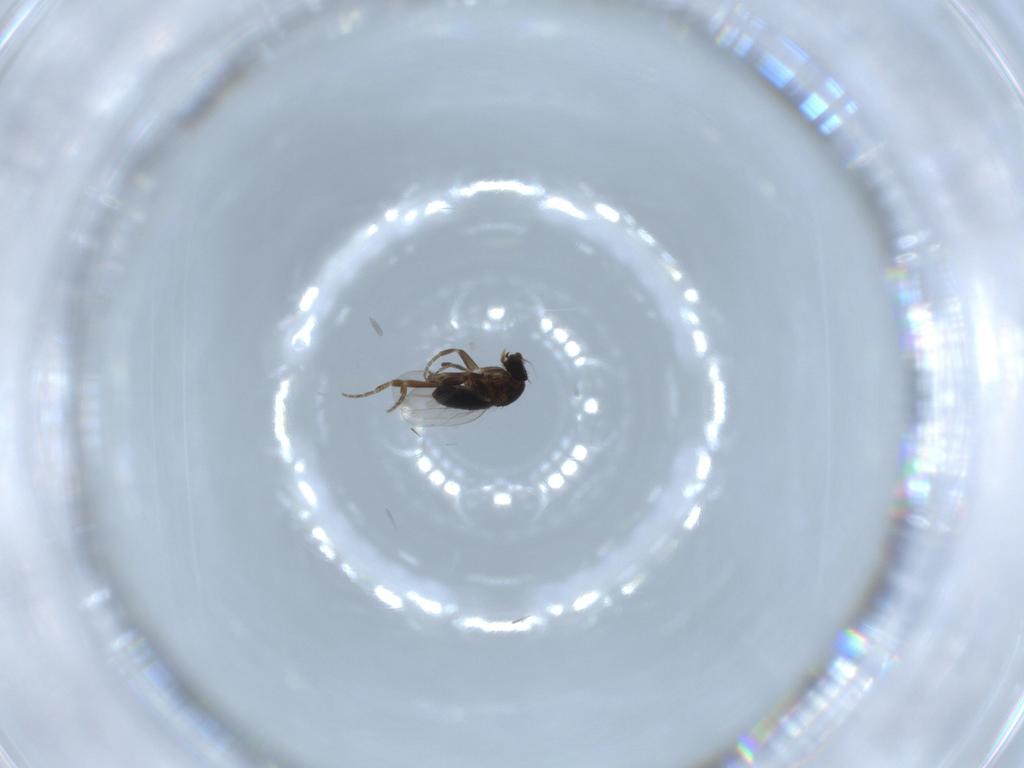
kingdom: Animalia
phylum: Arthropoda
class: Insecta
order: Diptera
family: Phoridae
